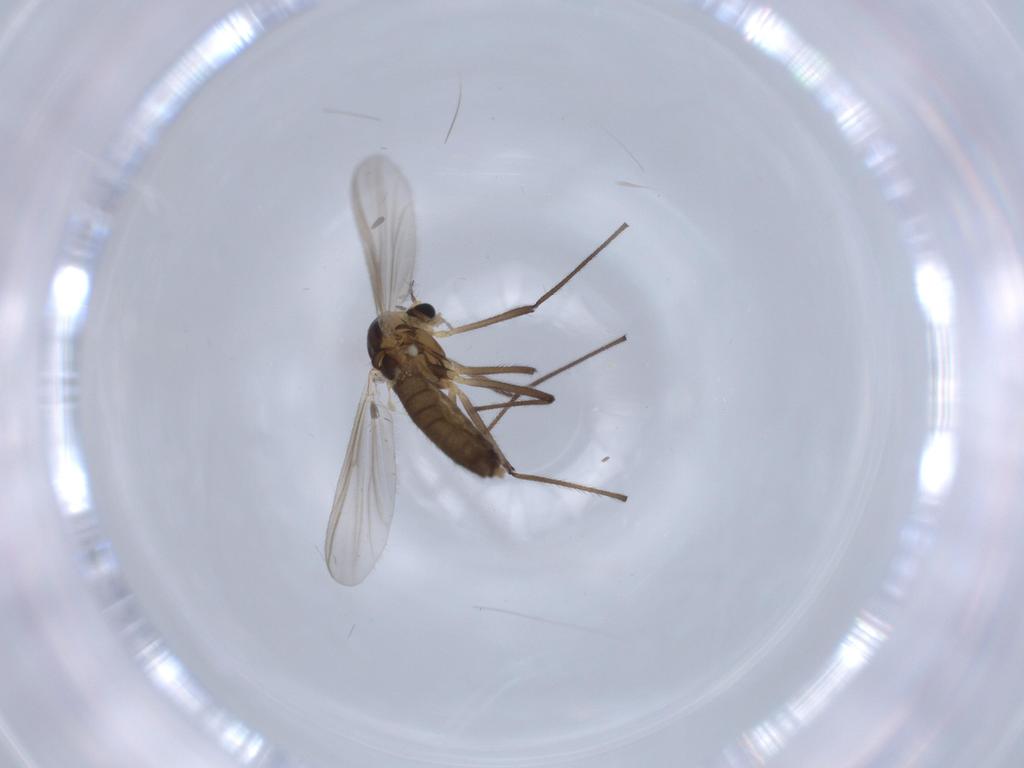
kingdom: Animalia
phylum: Arthropoda
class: Insecta
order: Diptera
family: Chironomidae
